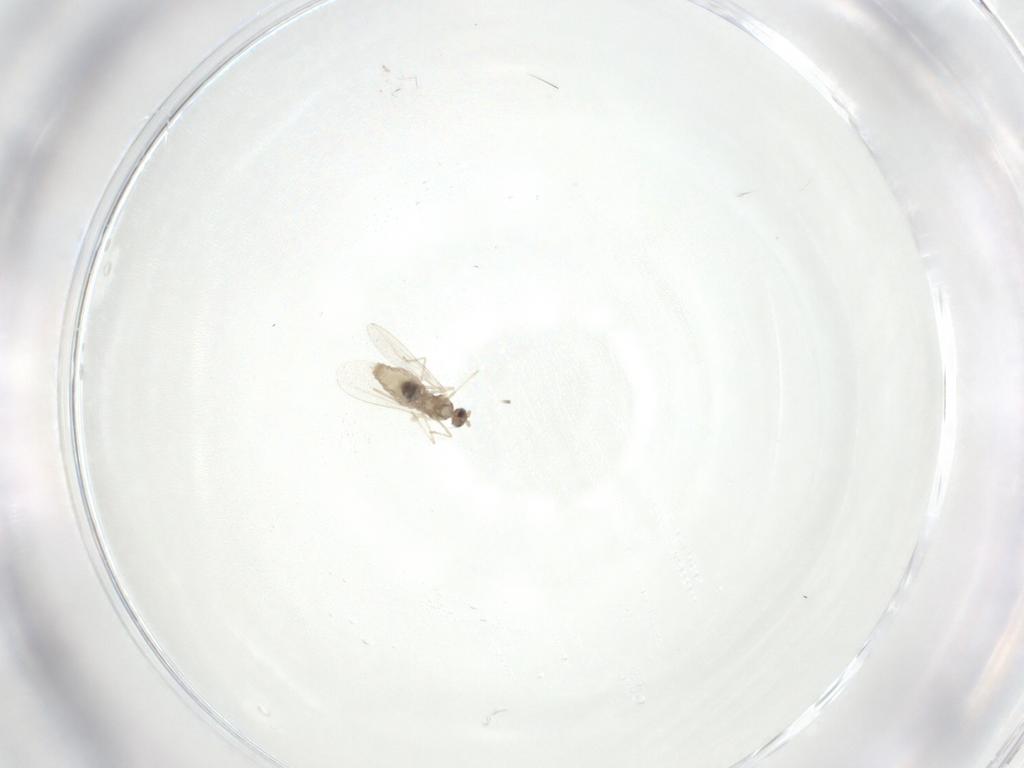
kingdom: Animalia
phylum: Arthropoda
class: Insecta
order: Diptera
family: Cecidomyiidae
